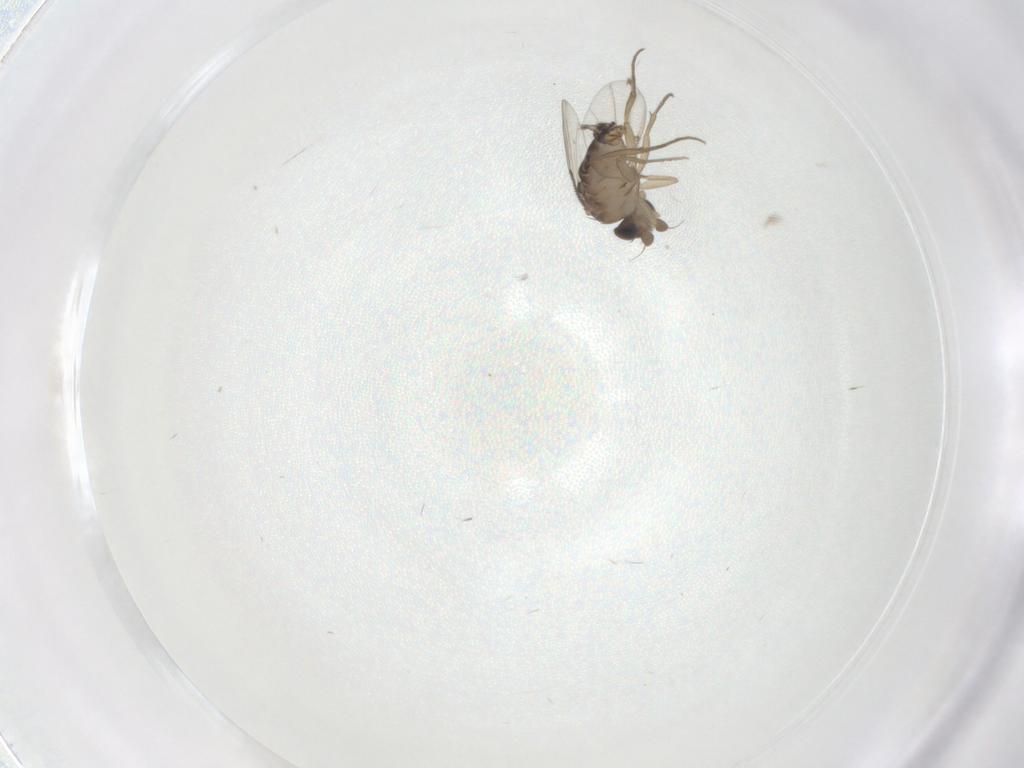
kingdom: Animalia
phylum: Arthropoda
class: Insecta
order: Diptera
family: Limoniidae
